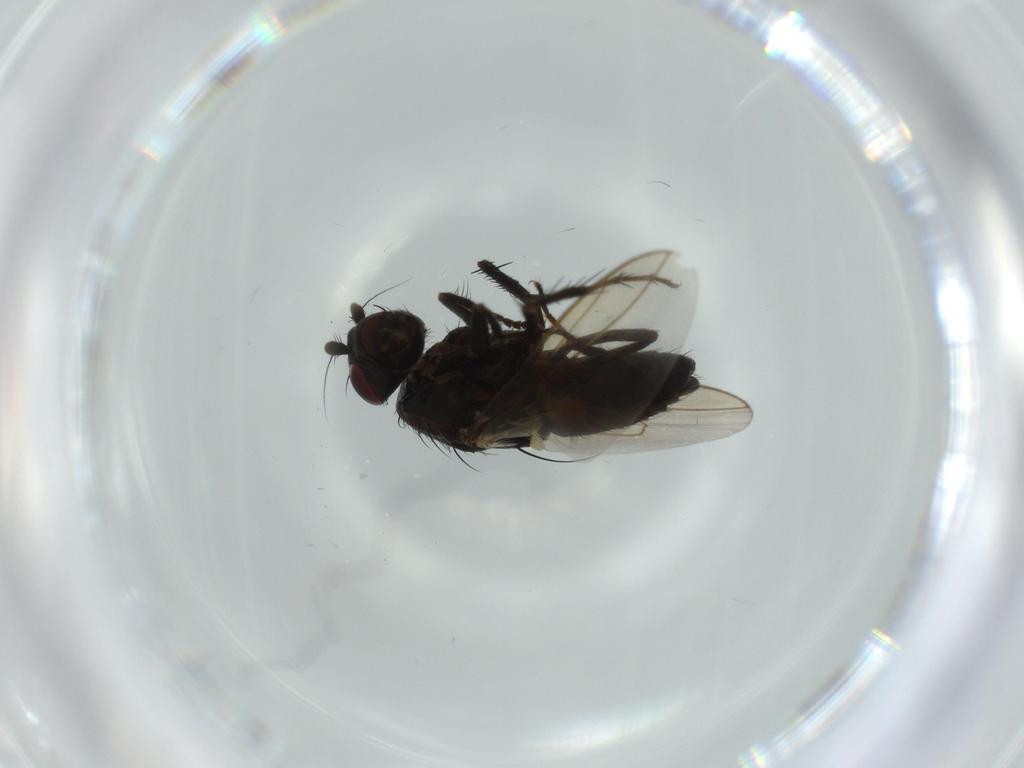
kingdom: Animalia
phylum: Arthropoda
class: Insecta
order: Diptera
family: Sphaeroceridae
